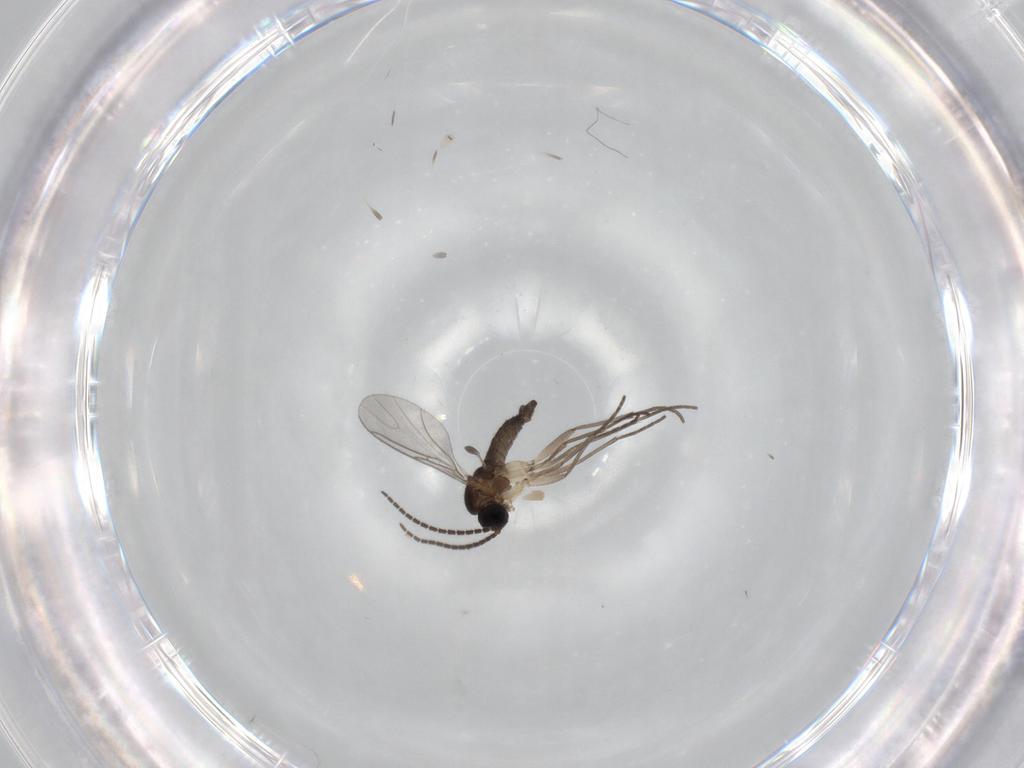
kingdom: Animalia
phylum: Arthropoda
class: Insecta
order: Diptera
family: Sciaridae
